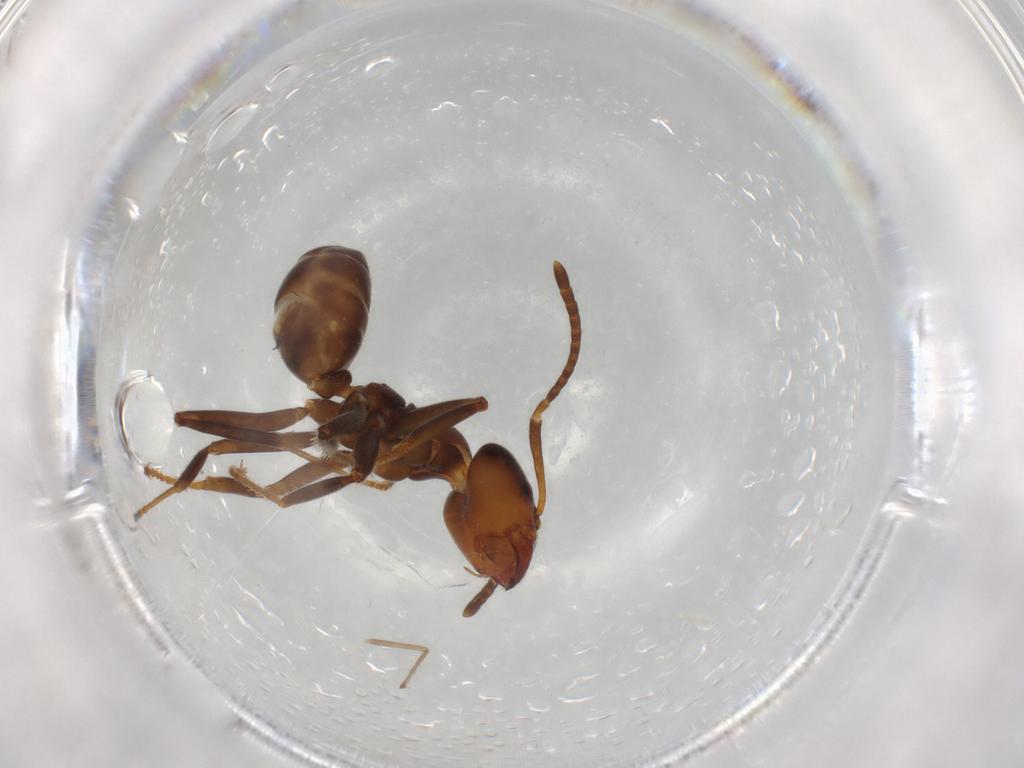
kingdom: Animalia
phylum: Arthropoda
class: Insecta
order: Hymenoptera
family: Formicidae
